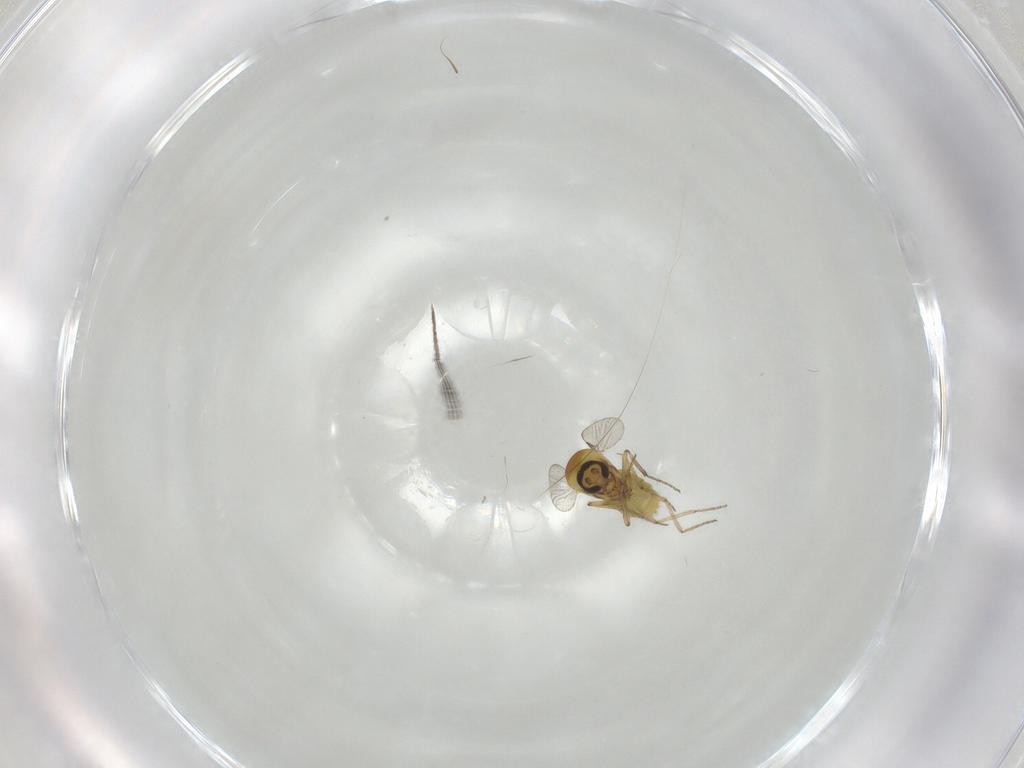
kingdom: Animalia
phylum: Arthropoda
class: Insecta
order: Diptera
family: Cecidomyiidae
